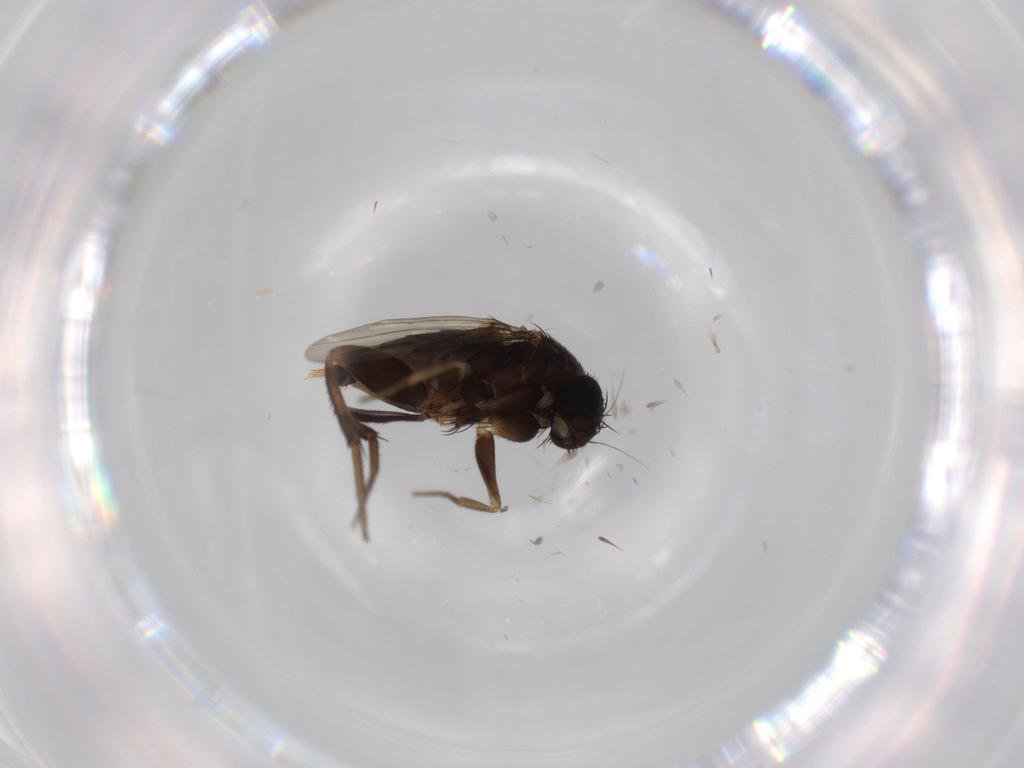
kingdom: Animalia
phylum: Arthropoda
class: Insecta
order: Diptera
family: Phoridae
